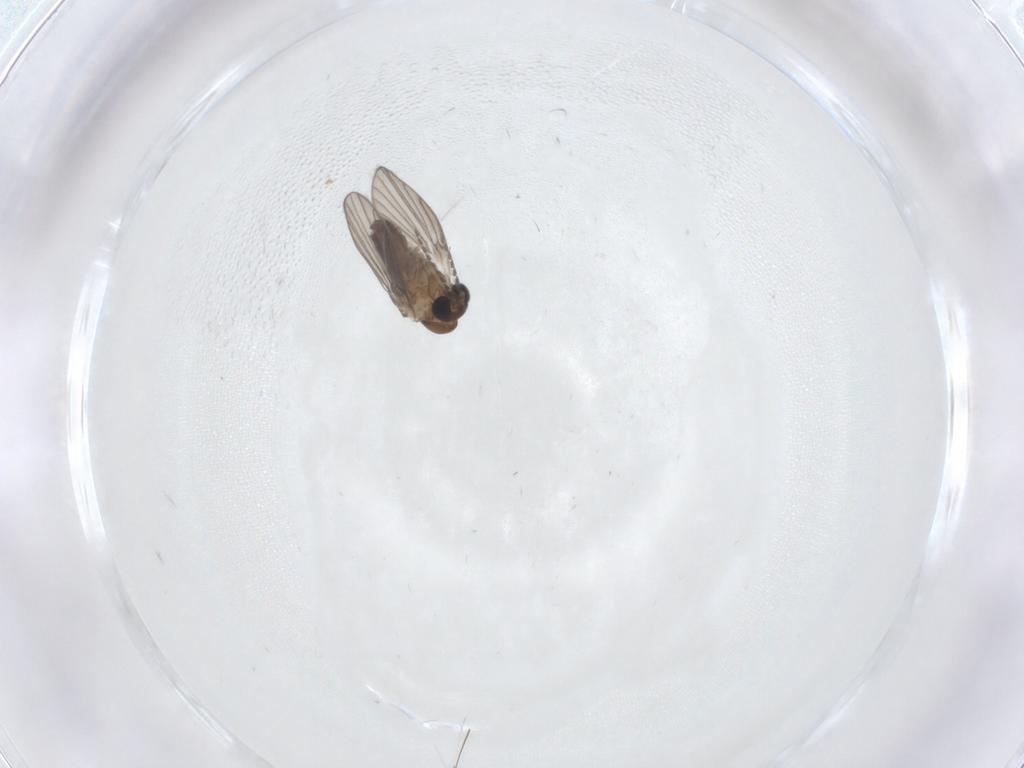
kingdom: Animalia
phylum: Arthropoda
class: Insecta
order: Diptera
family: Psychodidae
